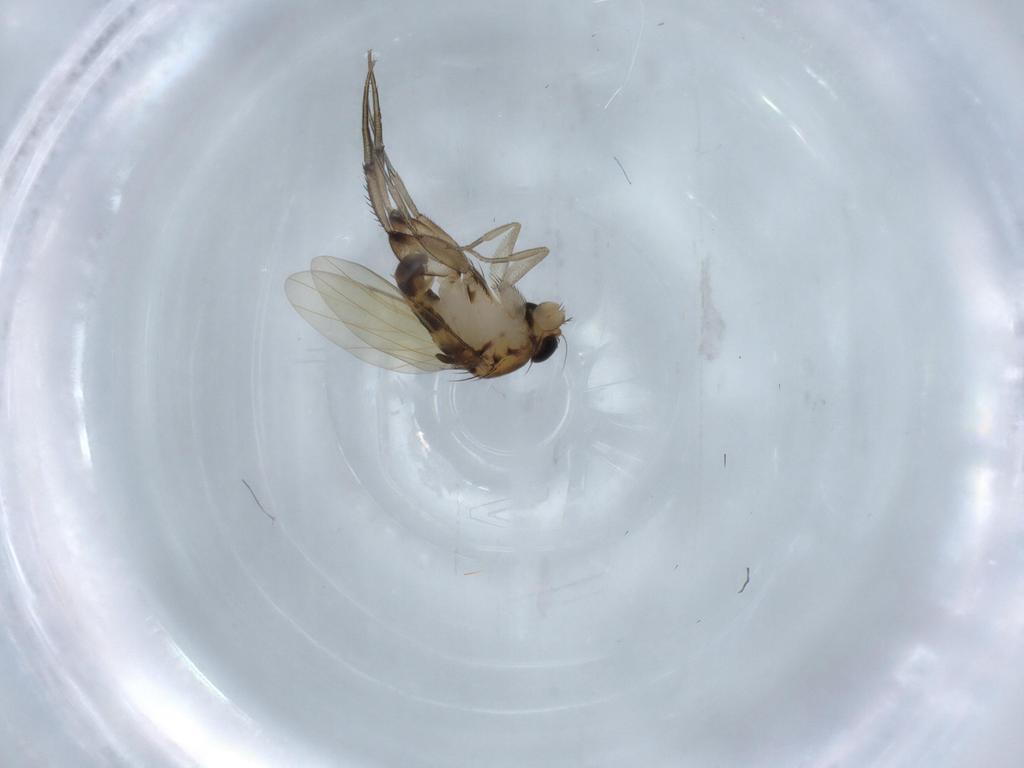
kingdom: Animalia
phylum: Arthropoda
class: Insecta
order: Diptera
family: Phoridae
